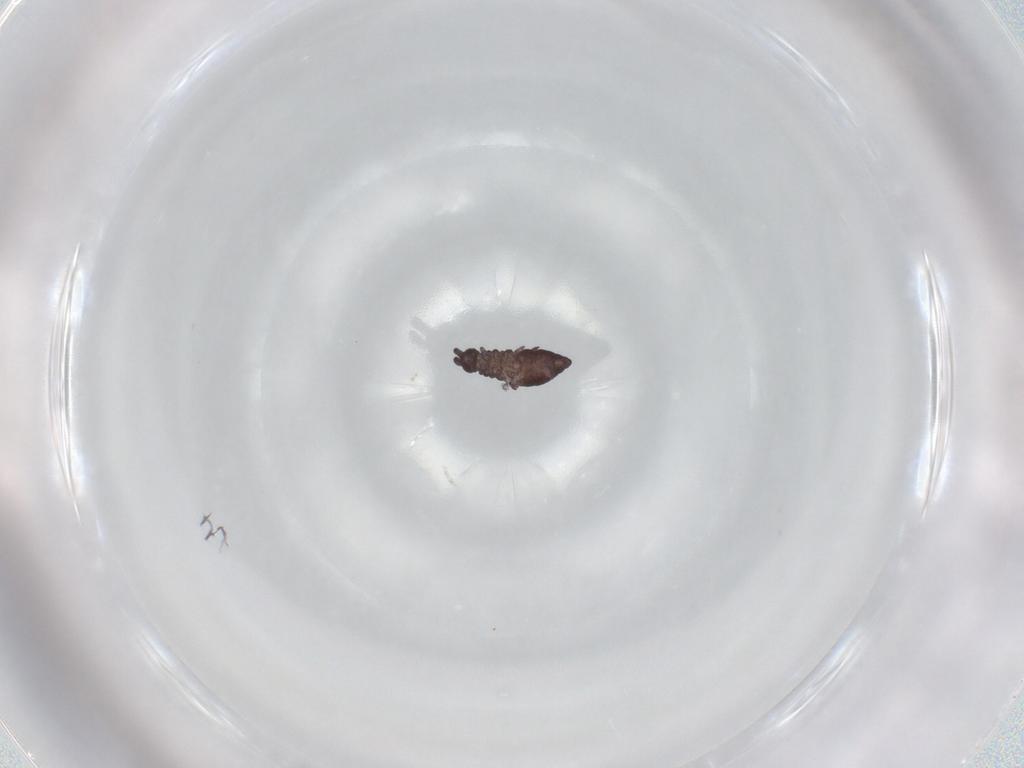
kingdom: Animalia
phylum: Arthropoda
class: Collembola
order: Poduromorpha
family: Hypogastruridae
